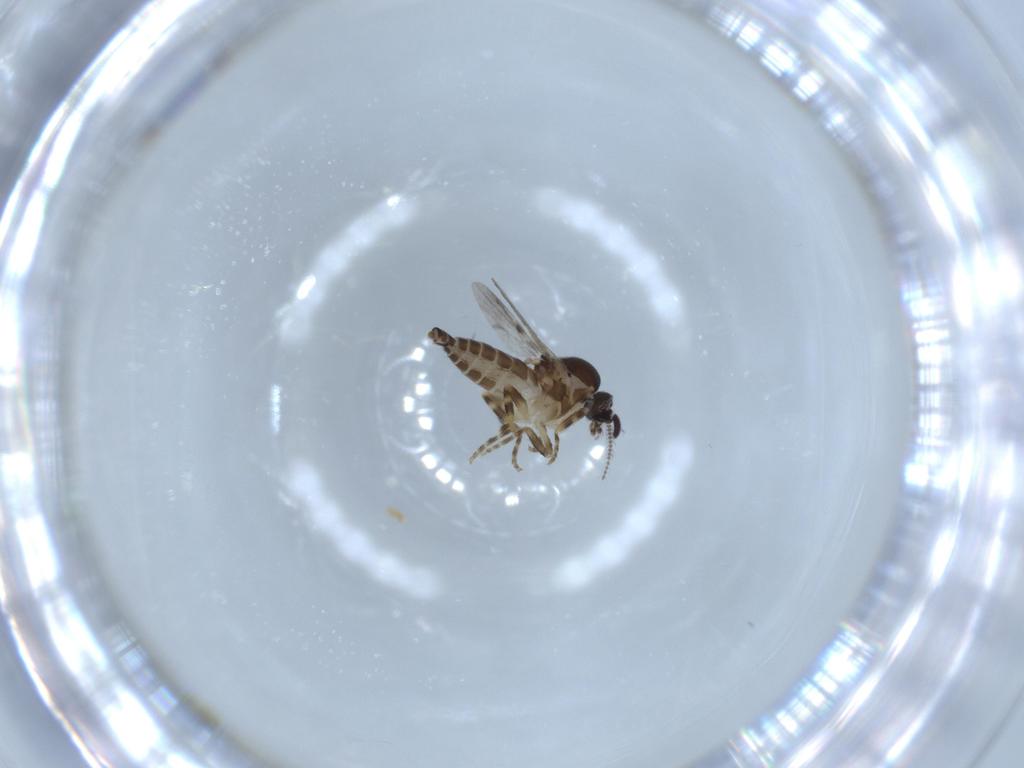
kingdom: Animalia
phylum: Arthropoda
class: Insecta
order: Diptera
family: Ceratopogonidae
